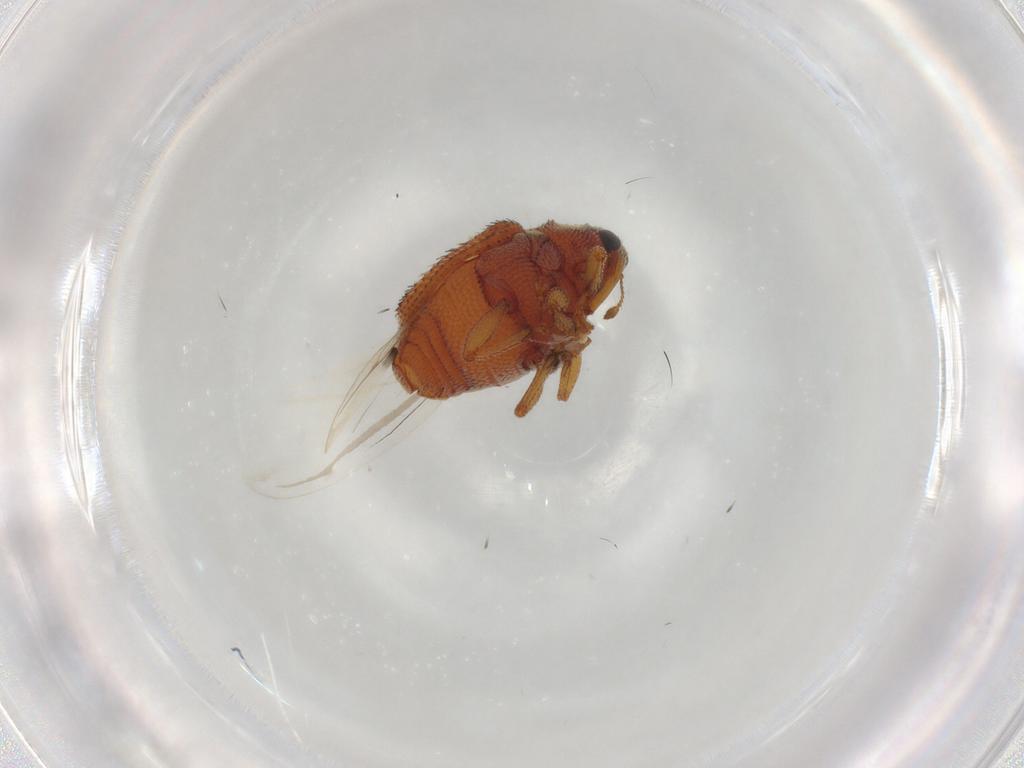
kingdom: Animalia
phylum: Arthropoda
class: Insecta
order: Coleoptera
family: Curculionidae
